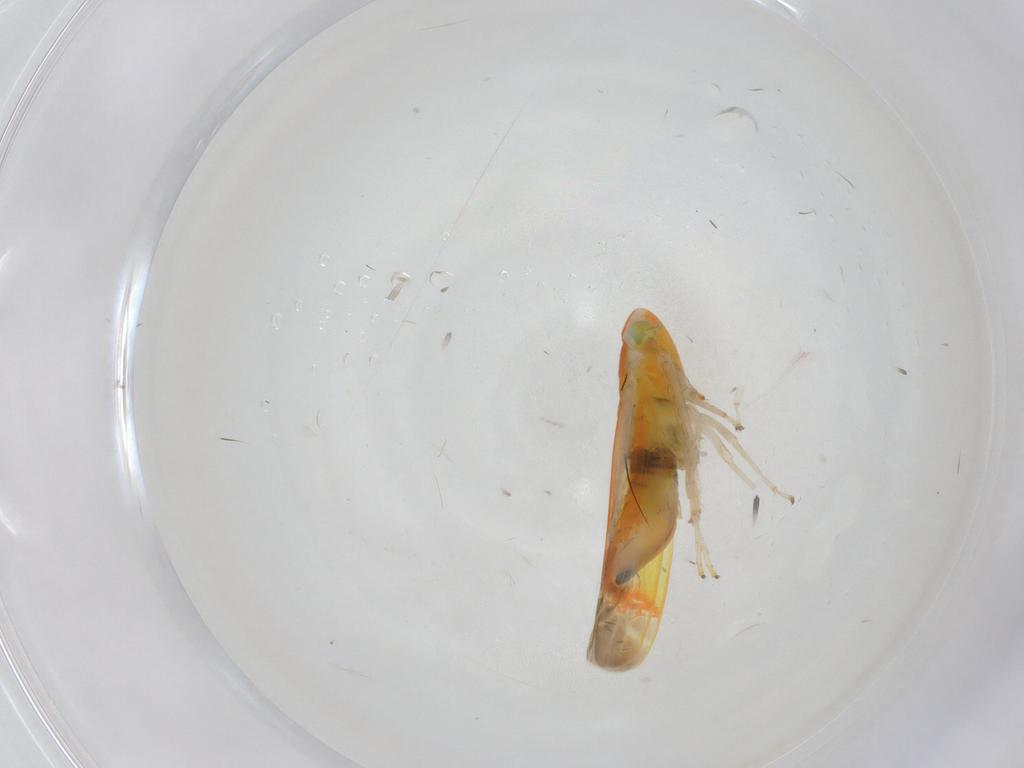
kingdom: Animalia
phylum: Arthropoda
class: Insecta
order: Hemiptera
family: Cicadellidae
